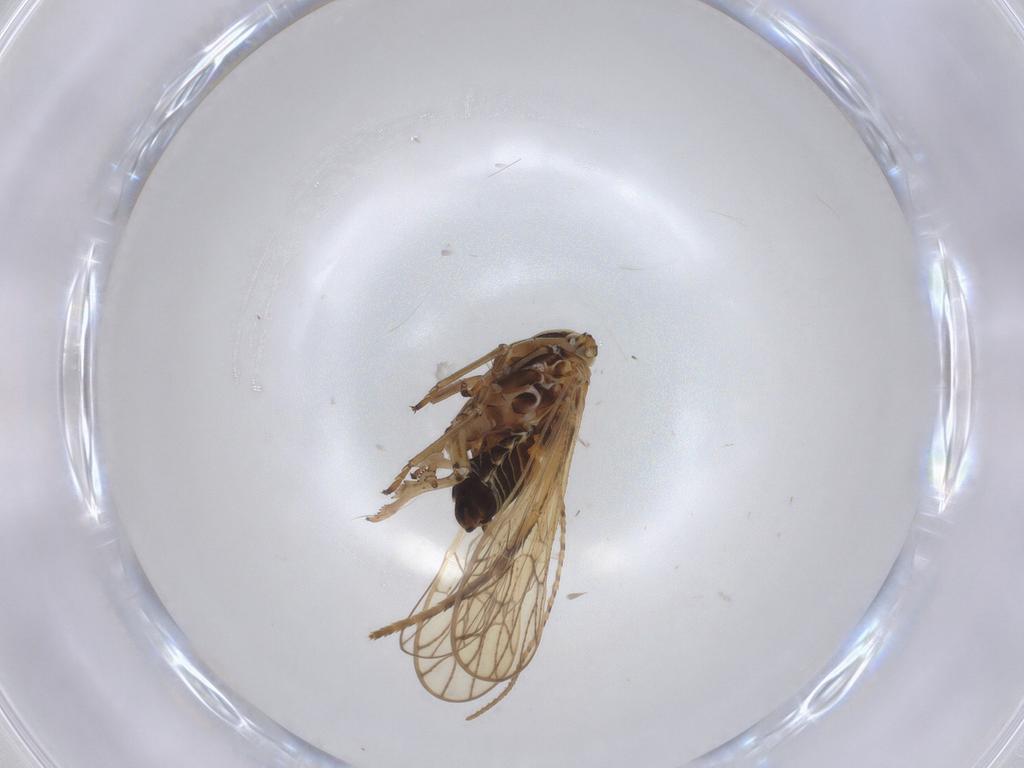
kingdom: Animalia
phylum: Arthropoda
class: Insecta
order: Hemiptera
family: Delphacidae
